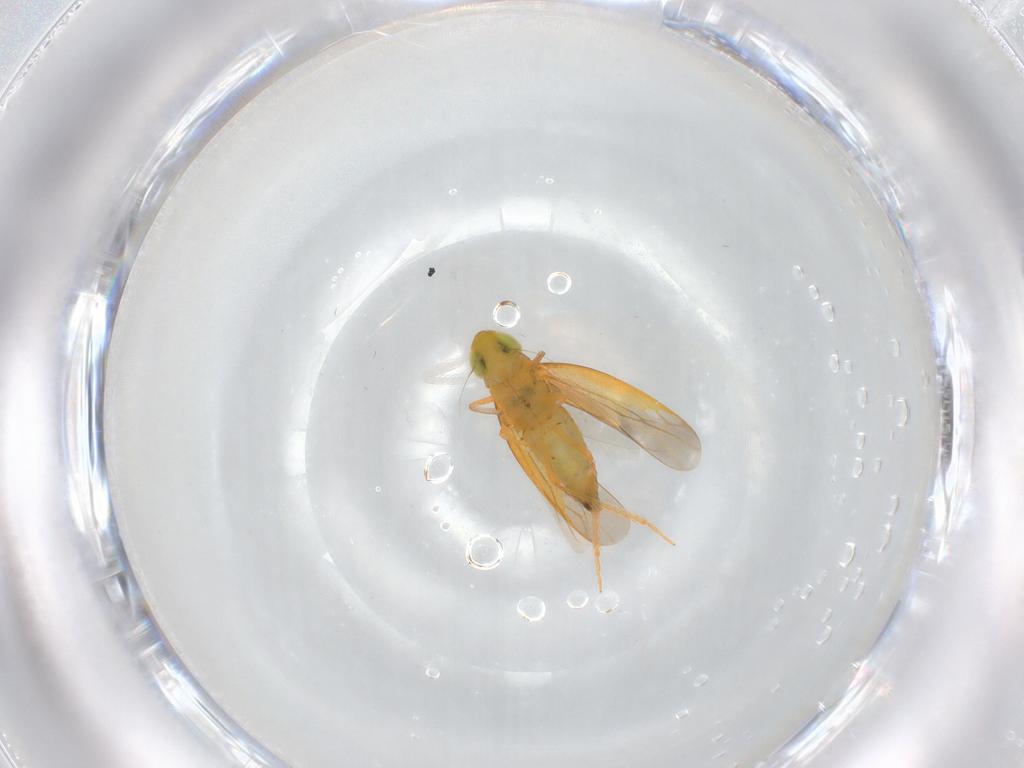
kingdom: Animalia
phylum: Arthropoda
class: Insecta
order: Hemiptera
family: Cicadellidae
